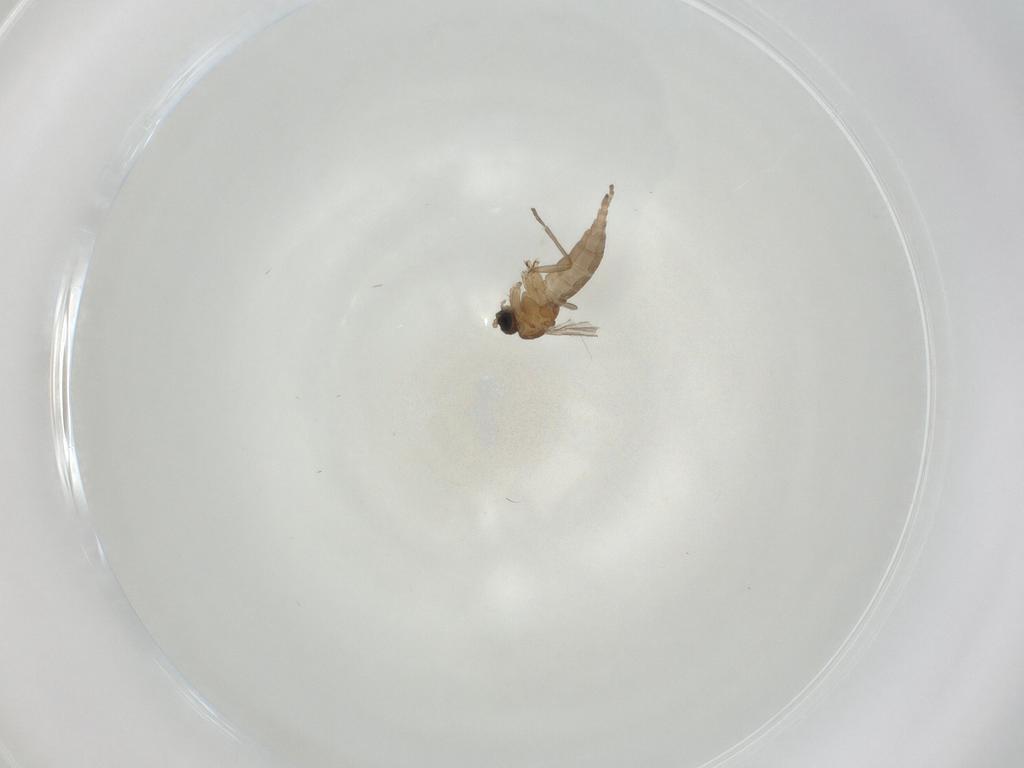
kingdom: Animalia
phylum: Arthropoda
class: Insecta
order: Diptera
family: Sciaridae
